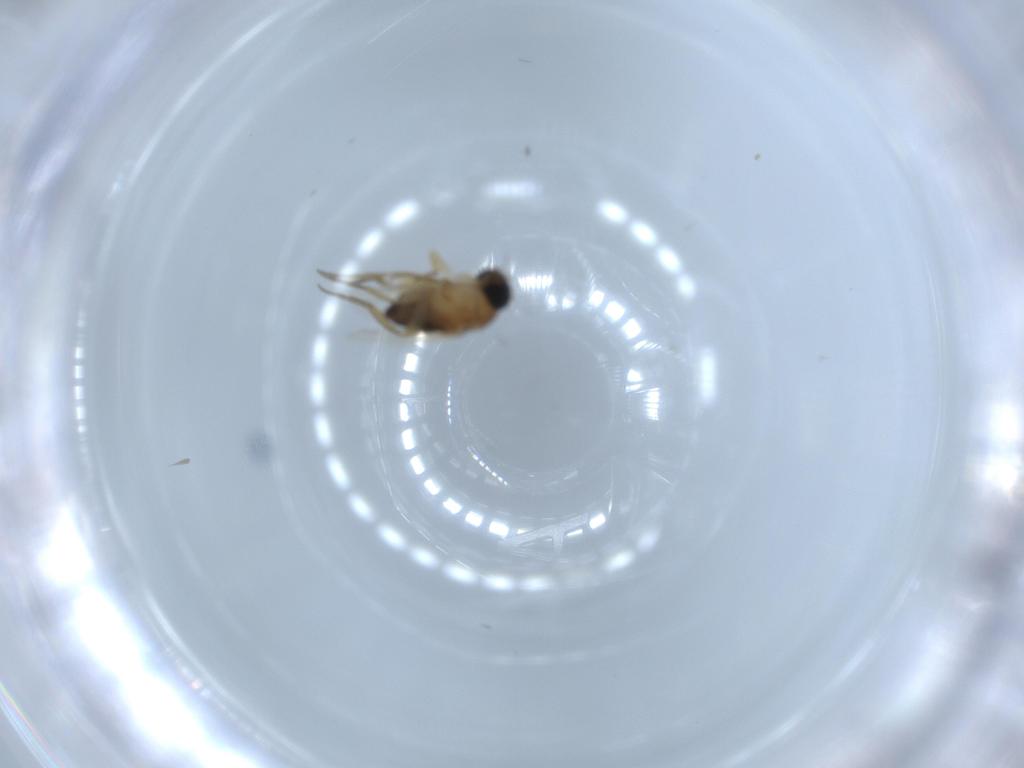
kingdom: Animalia
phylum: Arthropoda
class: Insecta
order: Diptera
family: Phoridae
